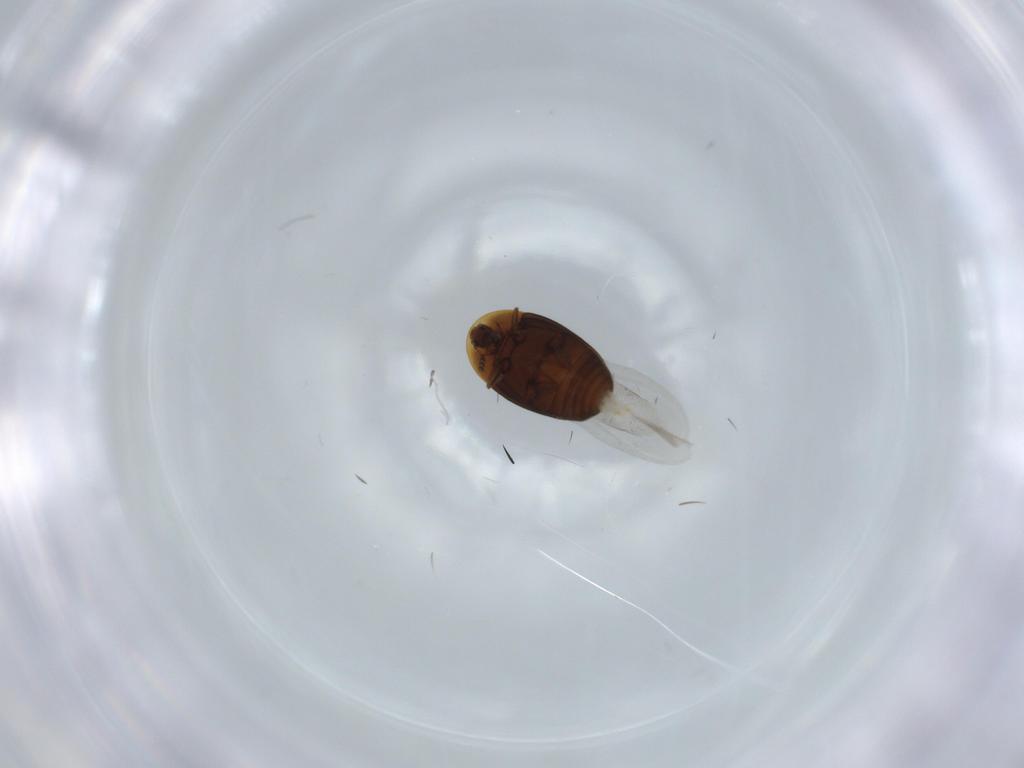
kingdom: Animalia
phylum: Arthropoda
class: Insecta
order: Coleoptera
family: Corylophidae
